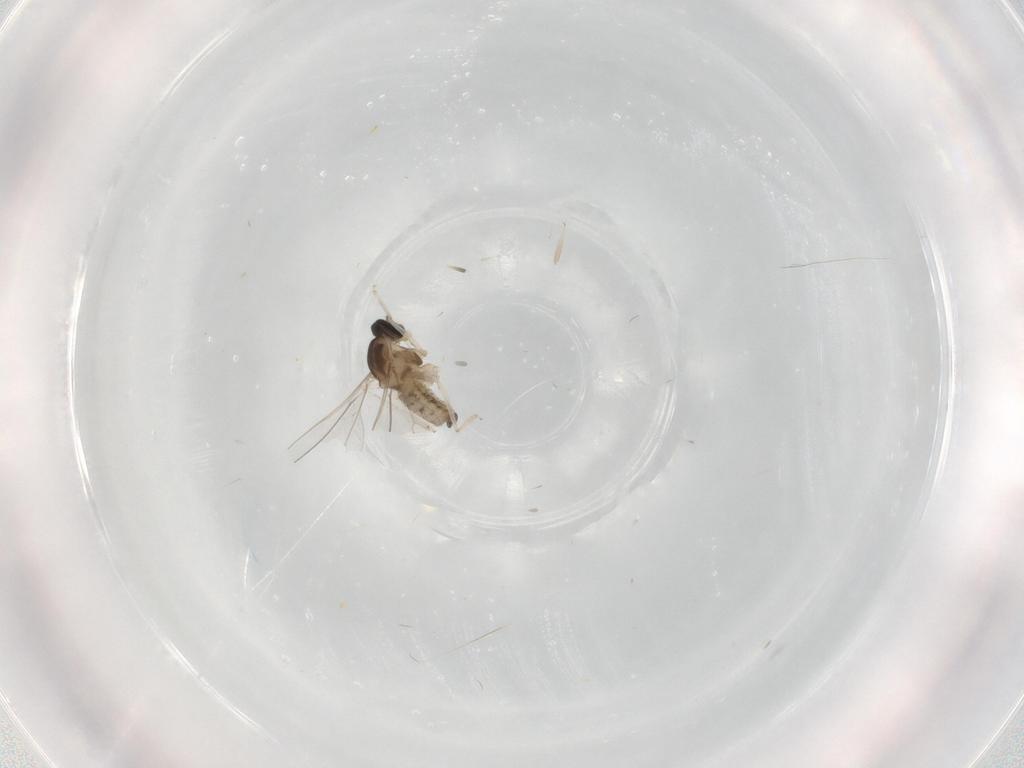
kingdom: Animalia
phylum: Arthropoda
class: Insecta
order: Diptera
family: Cecidomyiidae
